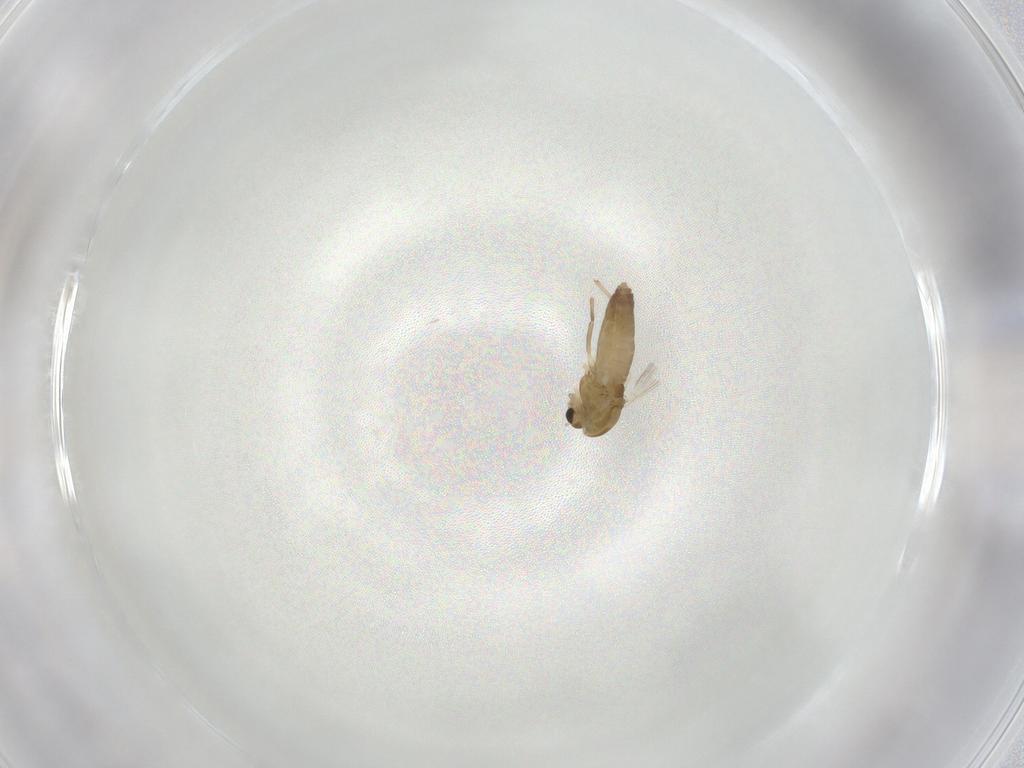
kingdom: Animalia
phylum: Arthropoda
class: Insecta
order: Diptera
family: Chironomidae
